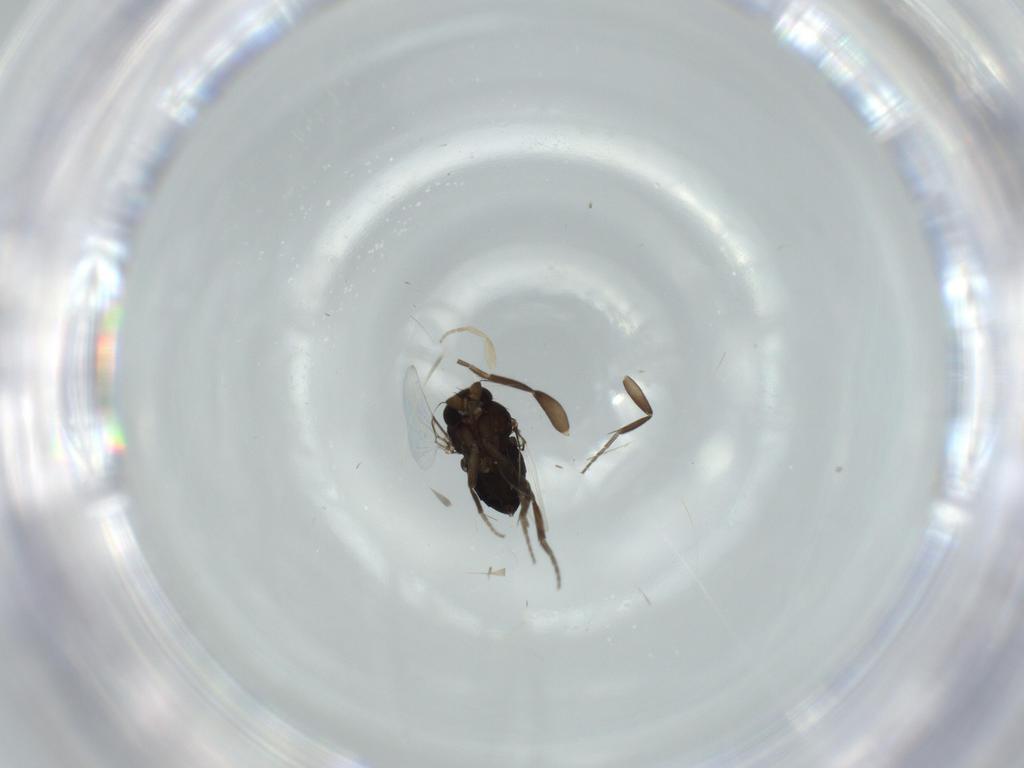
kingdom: Animalia
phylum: Arthropoda
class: Insecta
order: Diptera
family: Phoridae
